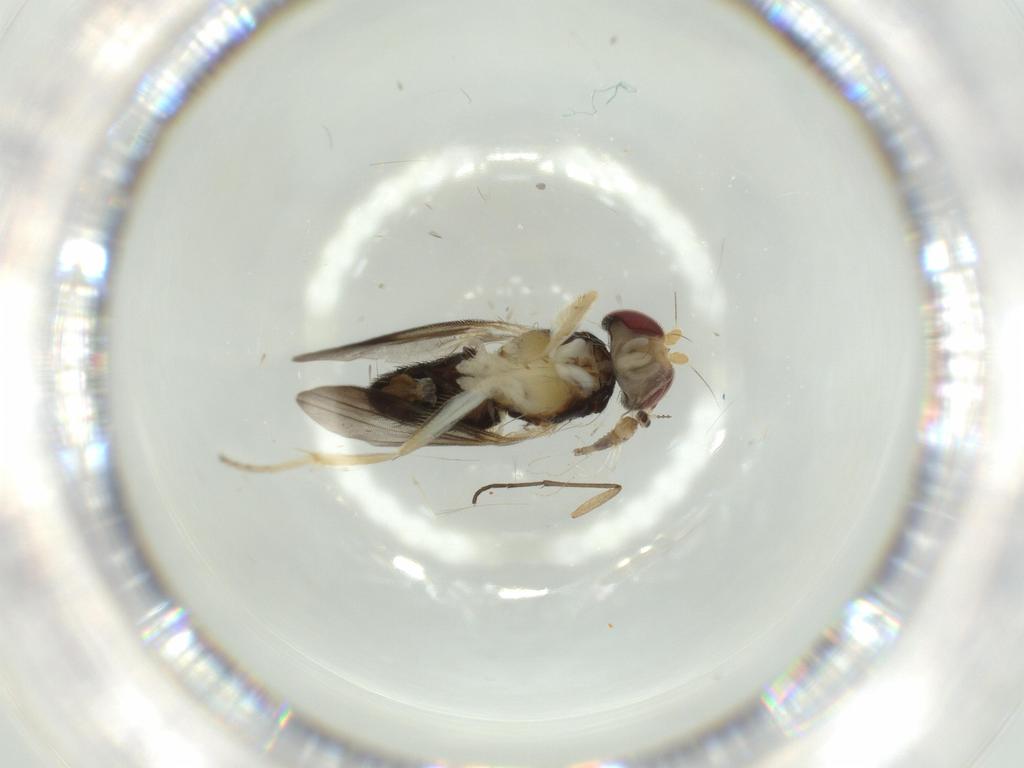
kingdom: Animalia
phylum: Arthropoda
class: Insecta
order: Diptera
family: Clusiidae
